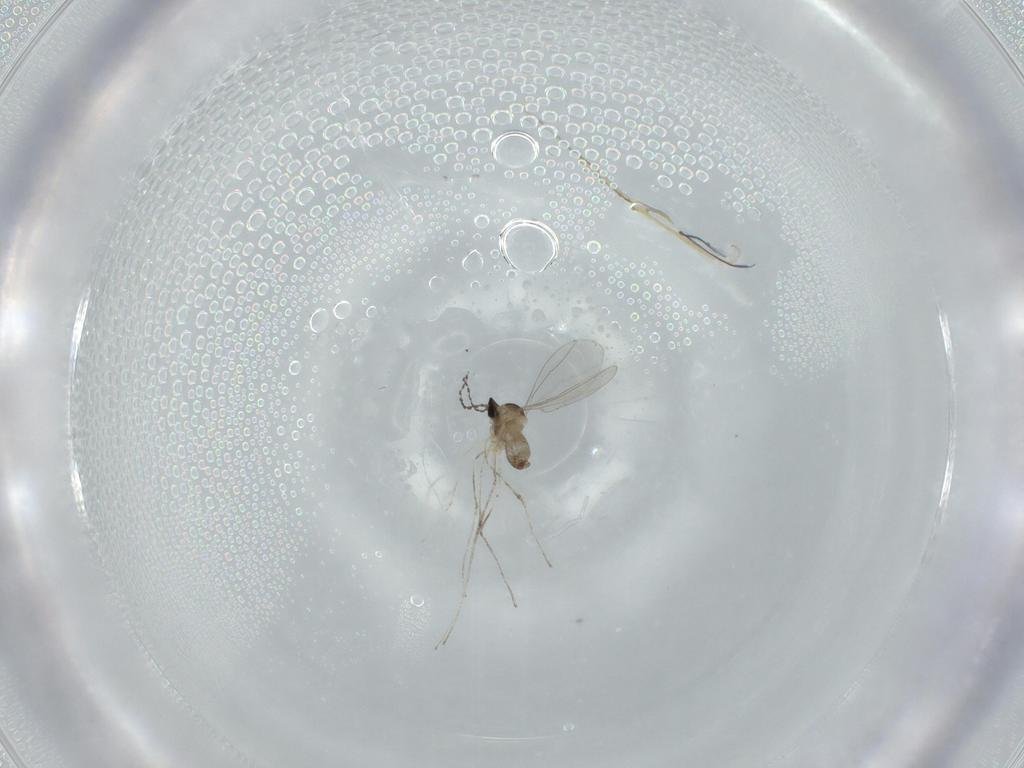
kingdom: Animalia
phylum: Arthropoda
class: Insecta
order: Diptera
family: Cecidomyiidae
